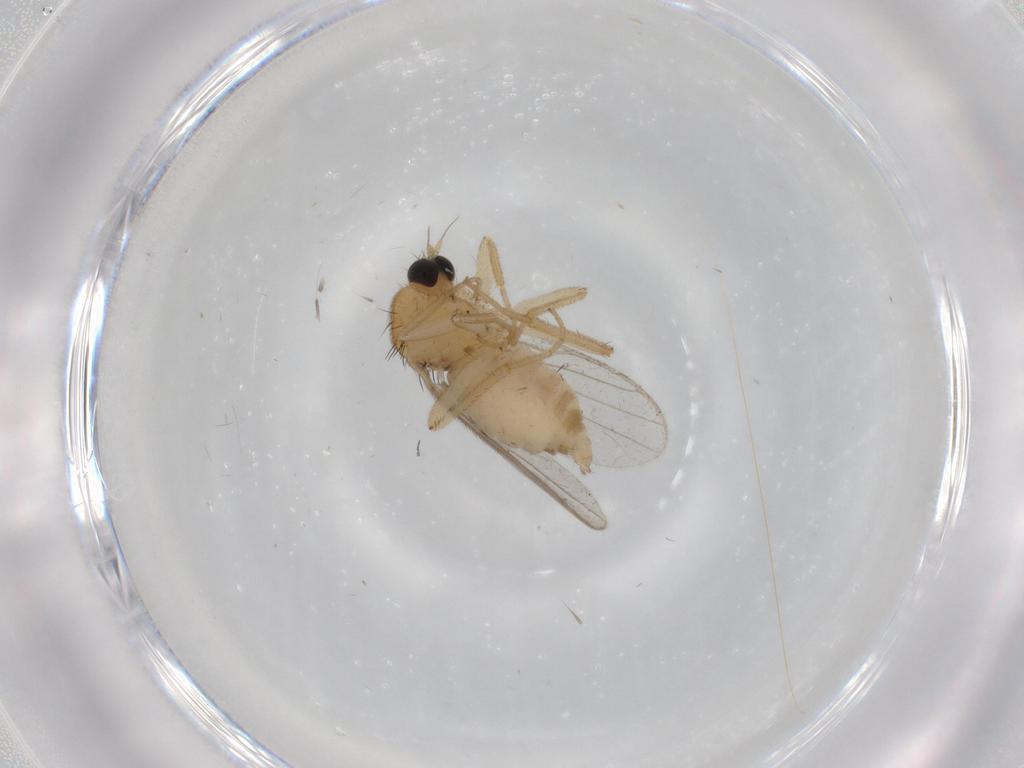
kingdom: Animalia
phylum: Arthropoda
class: Insecta
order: Diptera
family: Hybotidae
